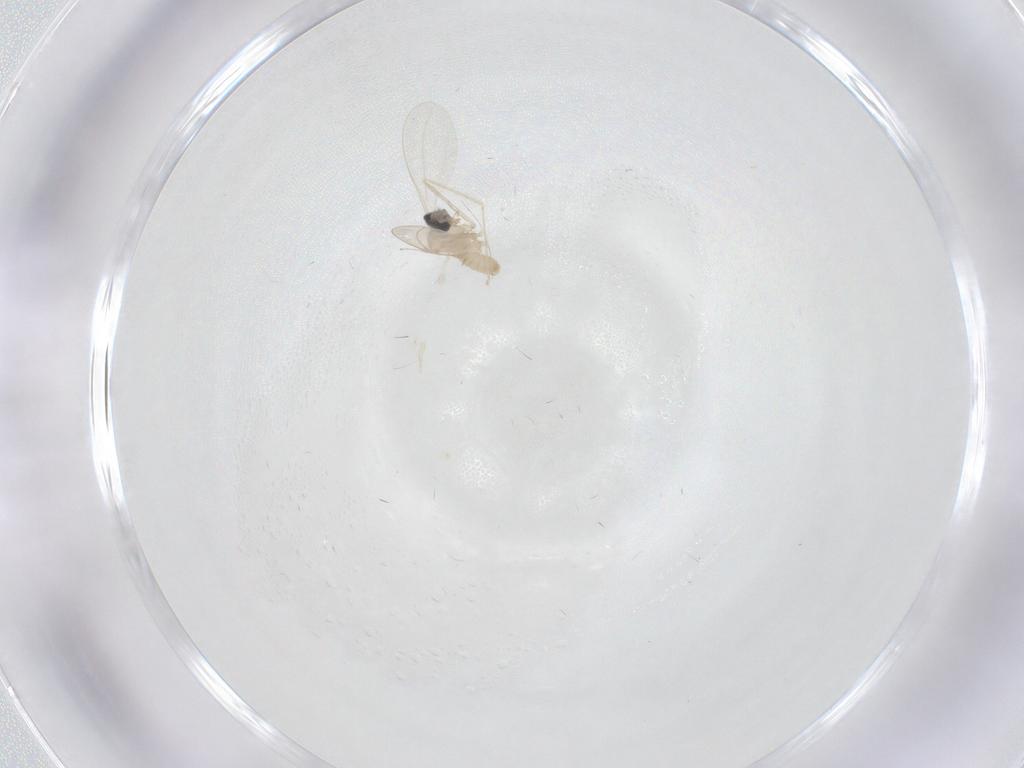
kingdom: Animalia
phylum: Arthropoda
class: Insecta
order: Diptera
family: Cecidomyiidae
